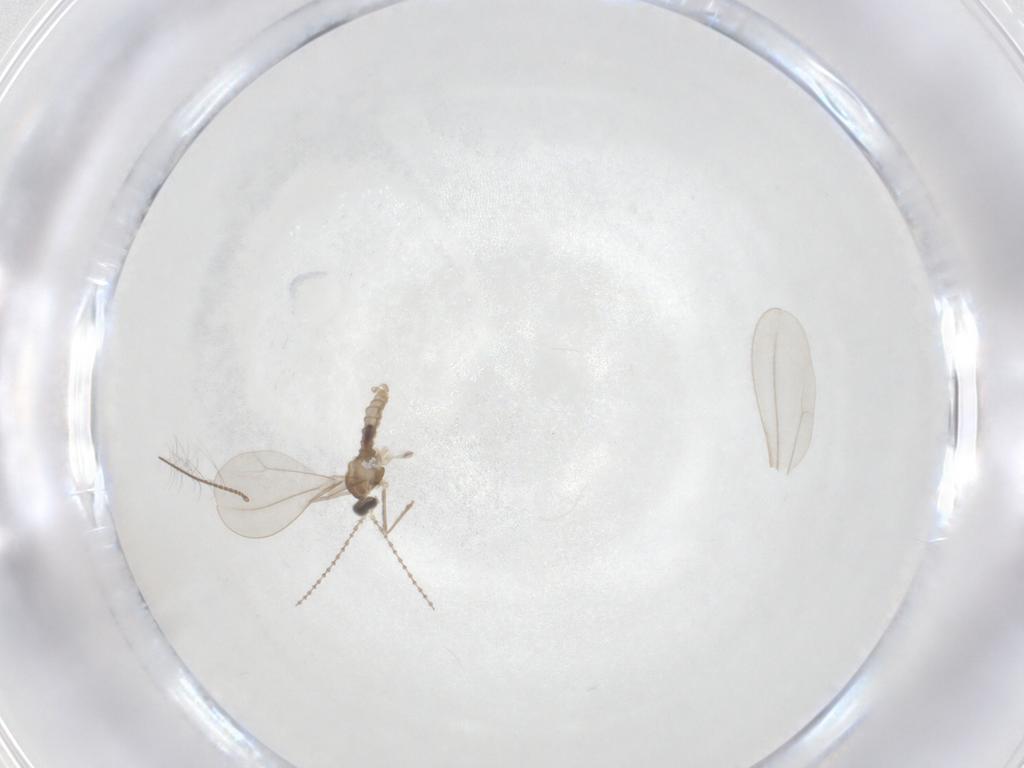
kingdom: Animalia
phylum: Arthropoda
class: Insecta
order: Diptera
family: Cecidomyiidae
